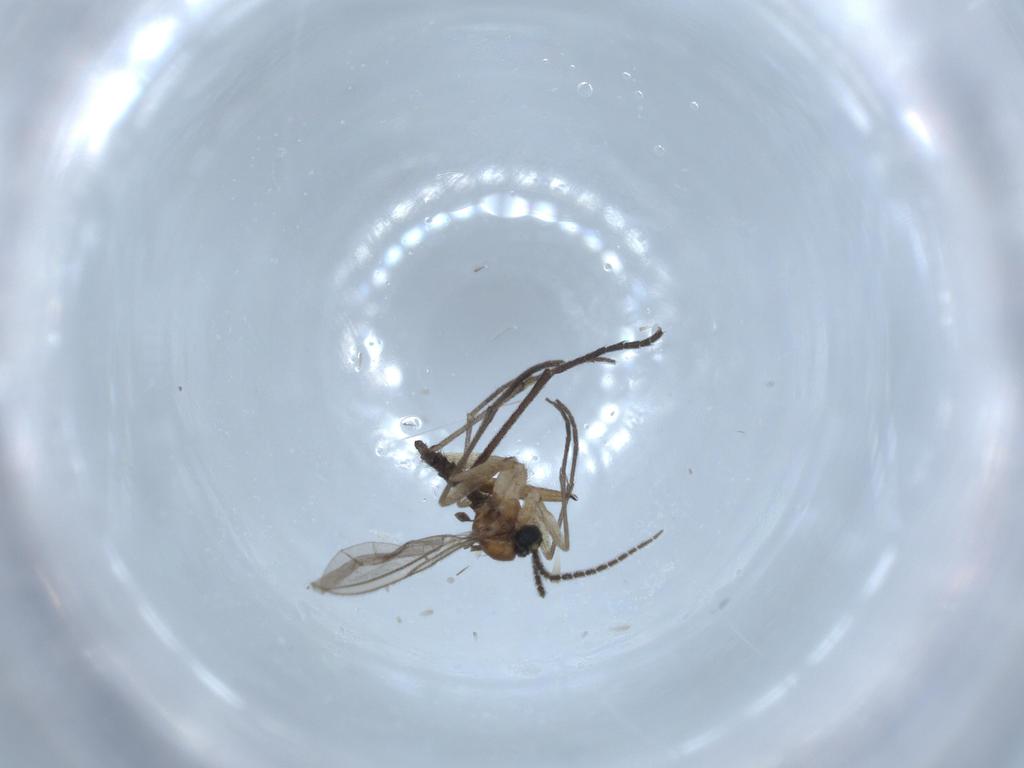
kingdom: Animalia
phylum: Arthropoda
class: Insecta
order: Diptera
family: Sciaridae
